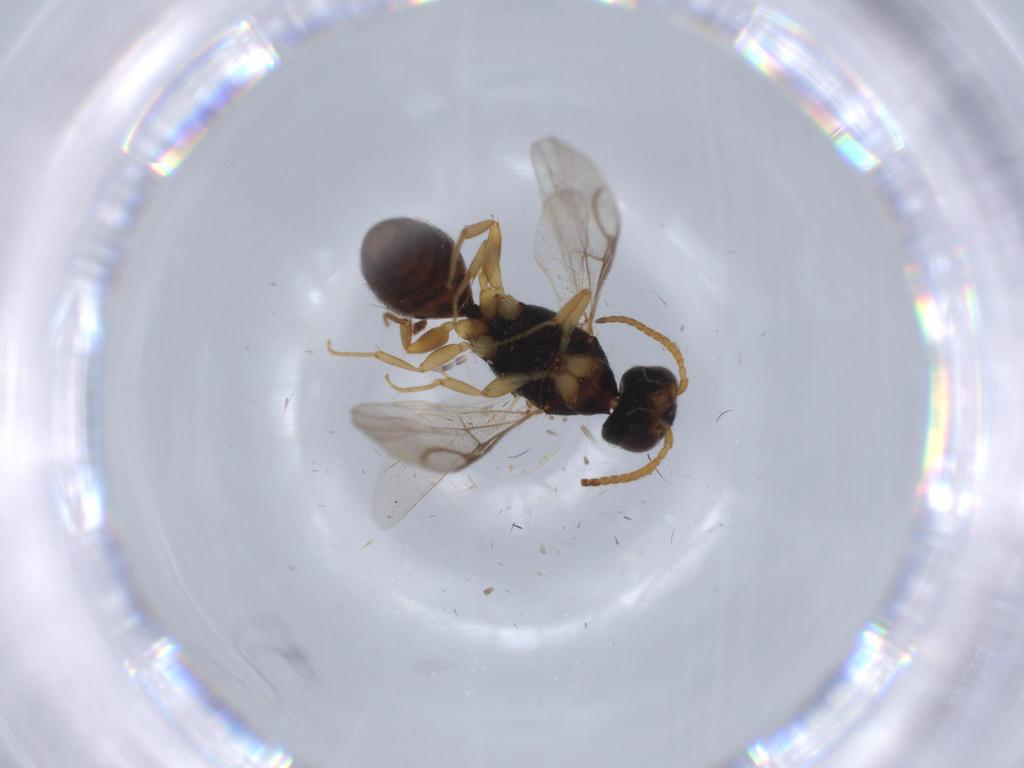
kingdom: Animalia
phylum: Arthropoda
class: Insecta
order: Hymenoptera
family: Bethylidae
